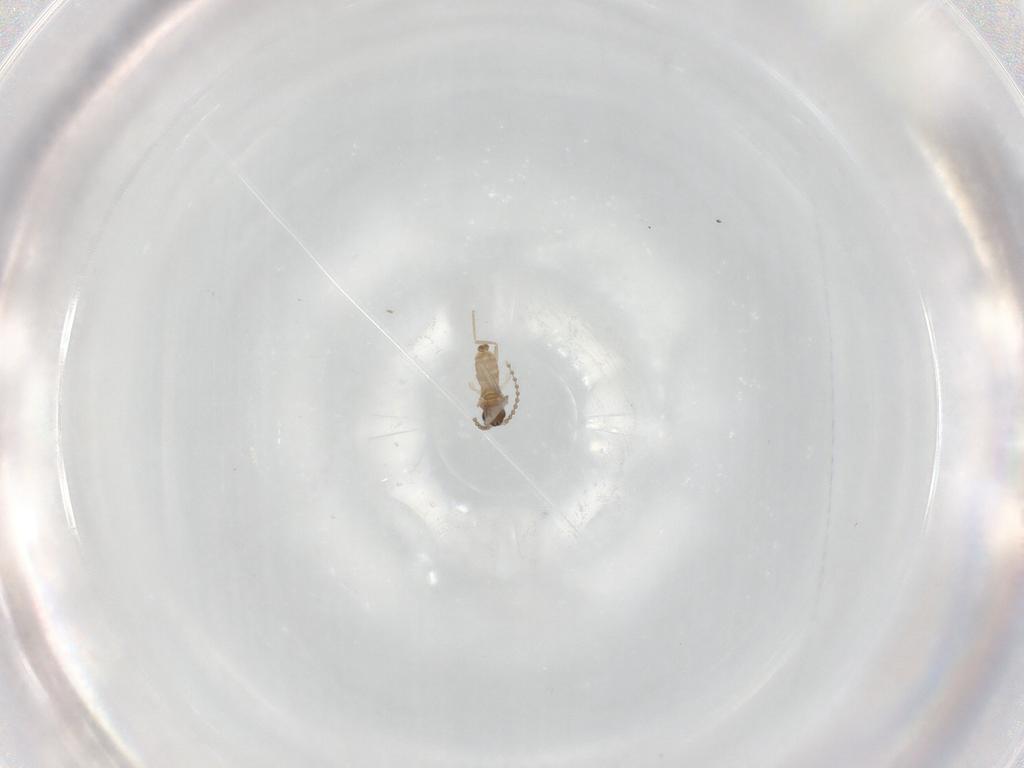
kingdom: Animalia
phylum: Arthropoda
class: Insecta
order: Diptera
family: Cecidomyiidae
